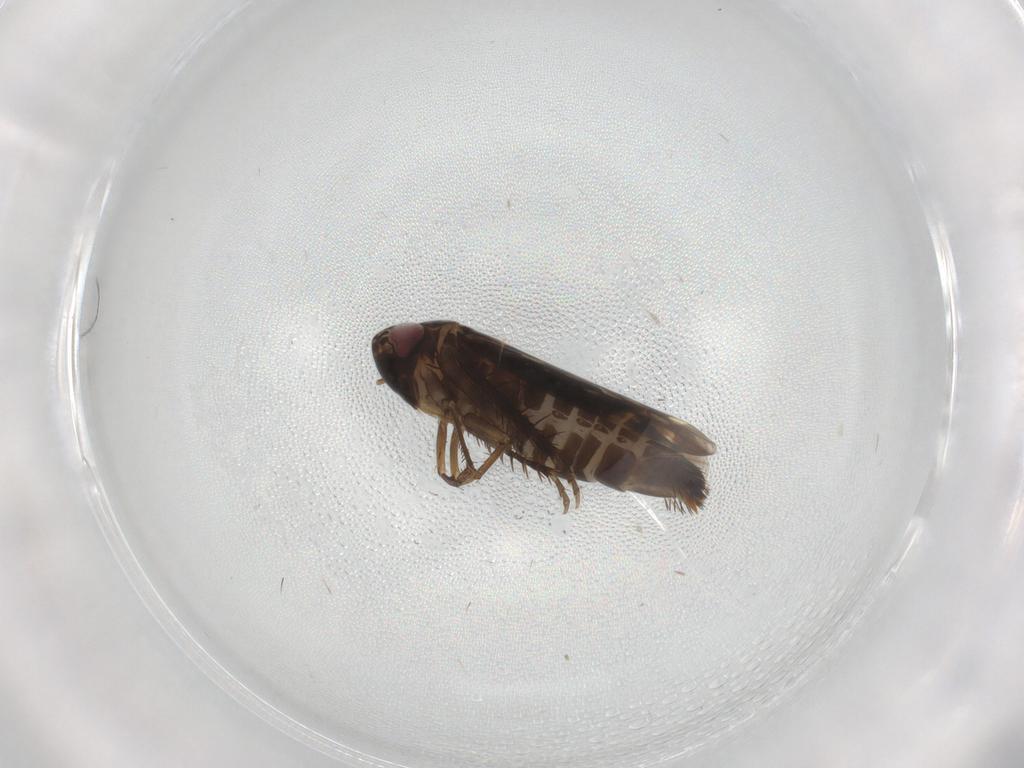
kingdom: Animalia
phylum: Arthropoda
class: Insecta
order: Hemiptera
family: Cicadellidae
